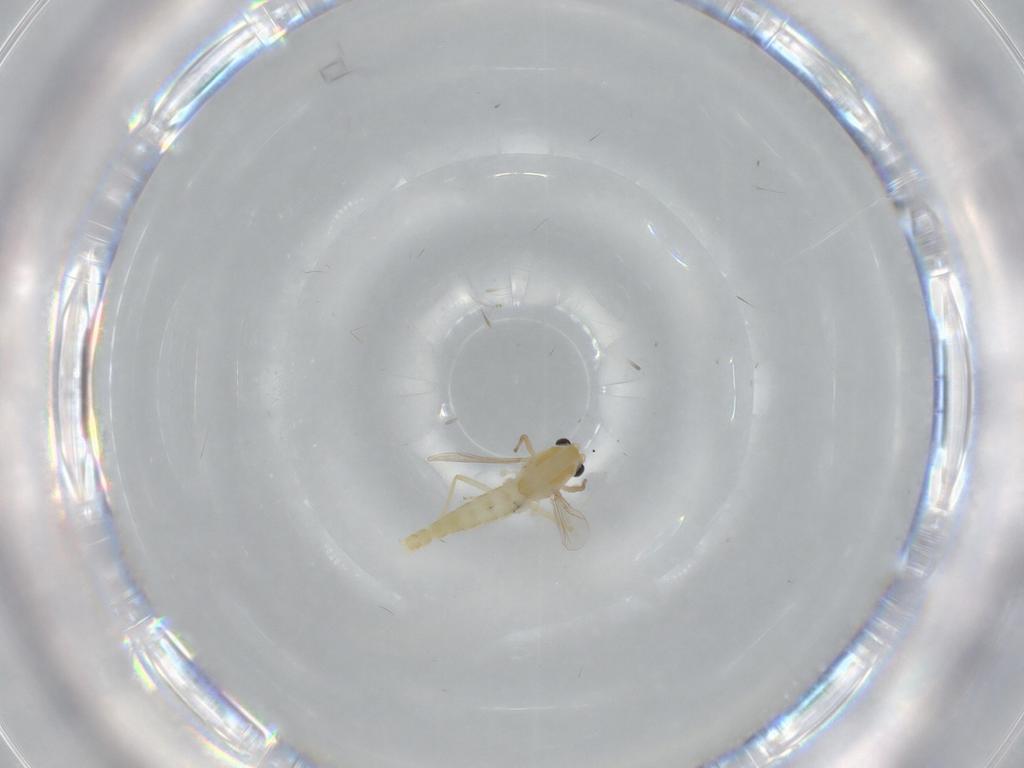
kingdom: Animalia
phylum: Arthropoda
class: Insecta
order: Diptera
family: Chironomidae
